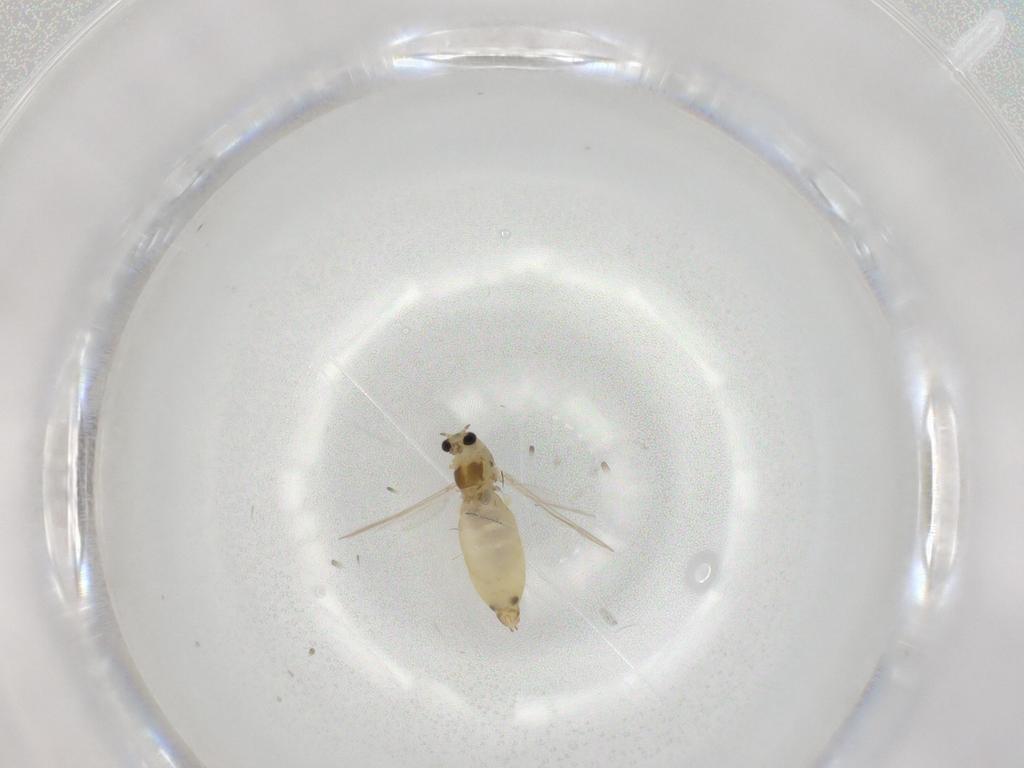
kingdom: Animalia
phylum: Arthropoda
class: Insecta
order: Diptera
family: Chironomidae
